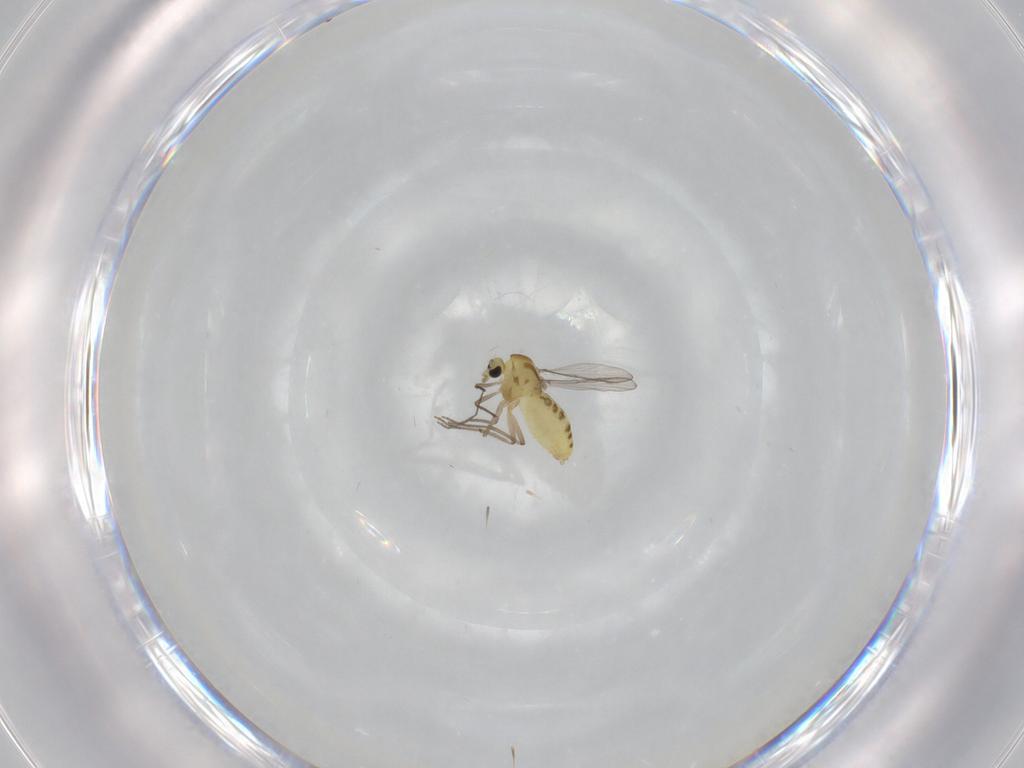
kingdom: Animalia
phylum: Arthropoda
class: Insecta
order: Diptera
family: Chironomidae
